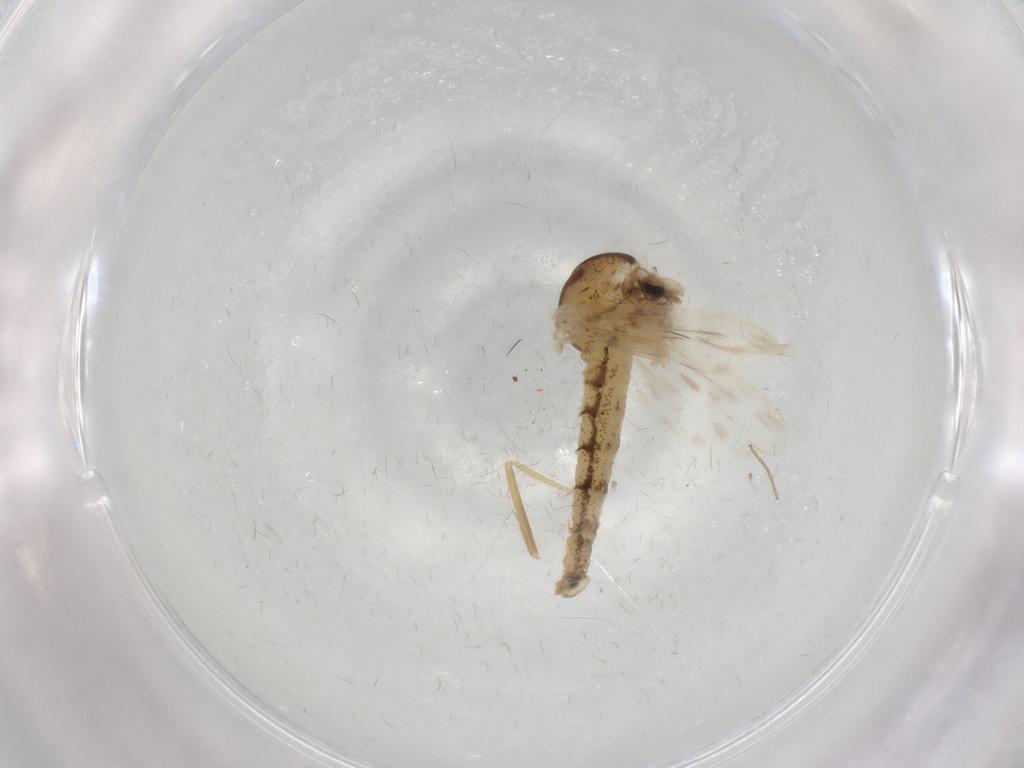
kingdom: Animalia
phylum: Arthropoda
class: Insecta
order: Diptera
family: Chaoboridae
